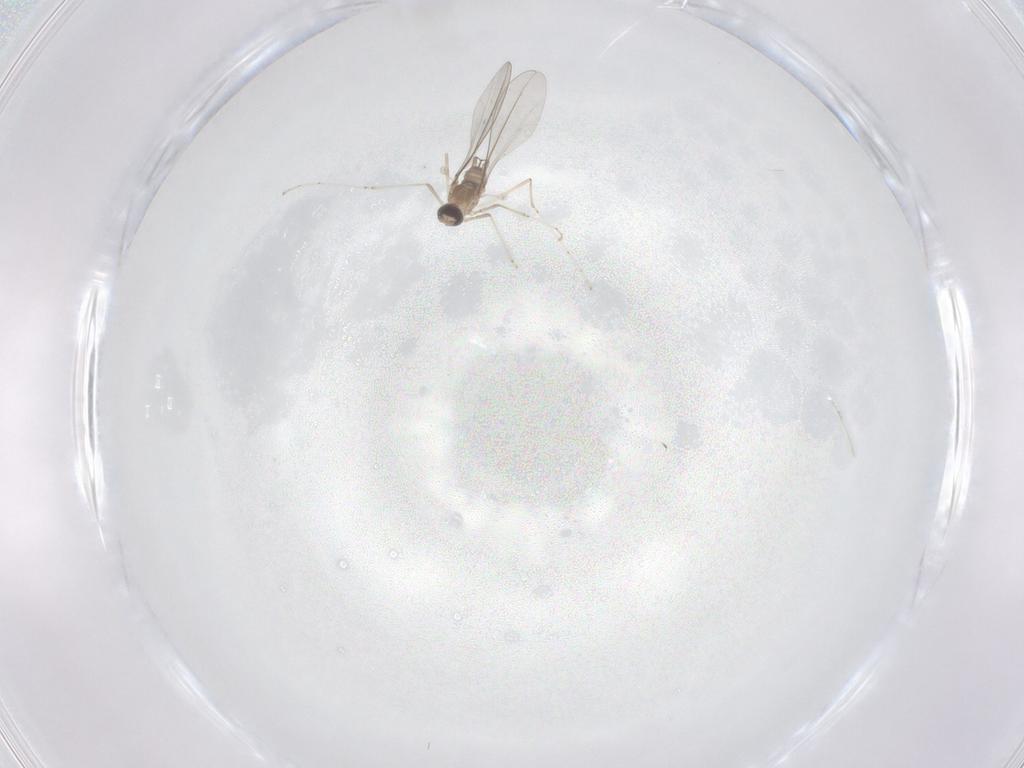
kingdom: Animalia
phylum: Arthropoda
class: Insecta
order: Diptera
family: Cecidomyiidae
